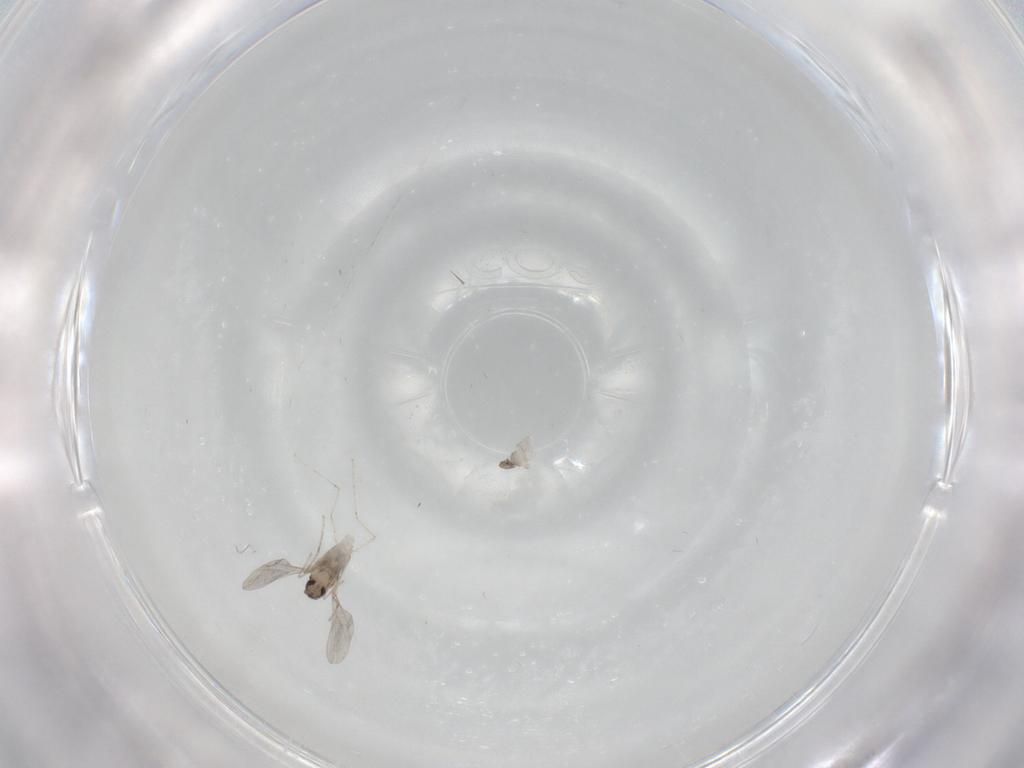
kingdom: Animalia
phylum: Arthropoda
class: Insecta
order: Diptera
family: Cecidomyiidae
